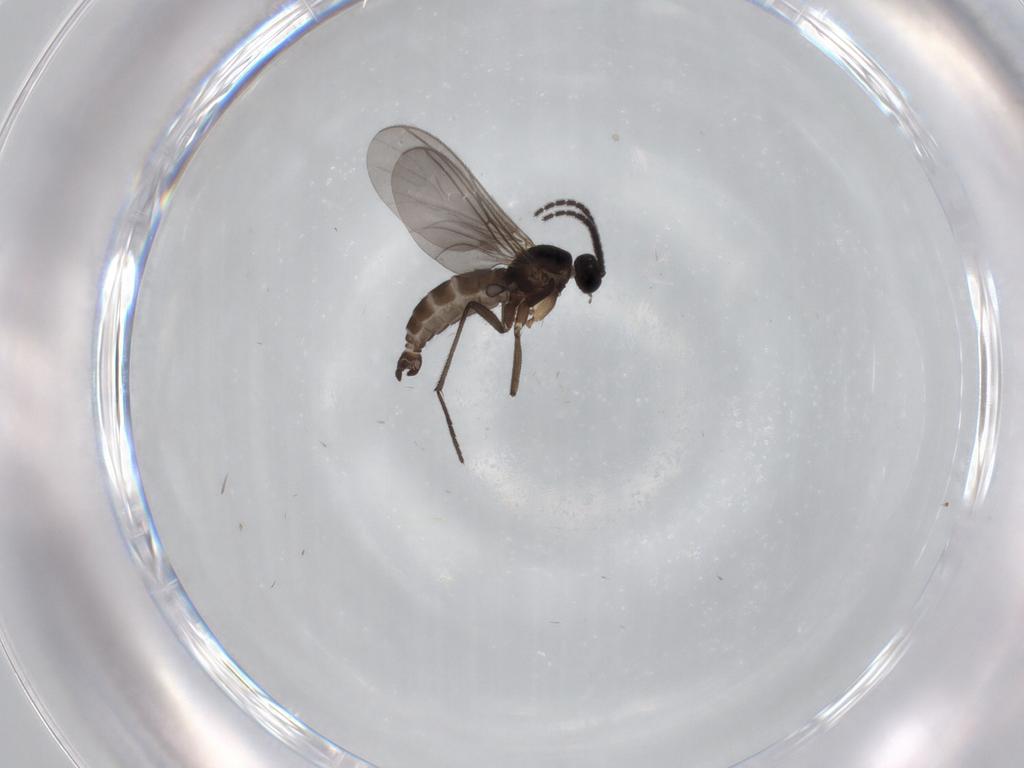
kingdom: Animalia
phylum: Arthropoda
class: Insecta
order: Diptera
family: Sciaridae
